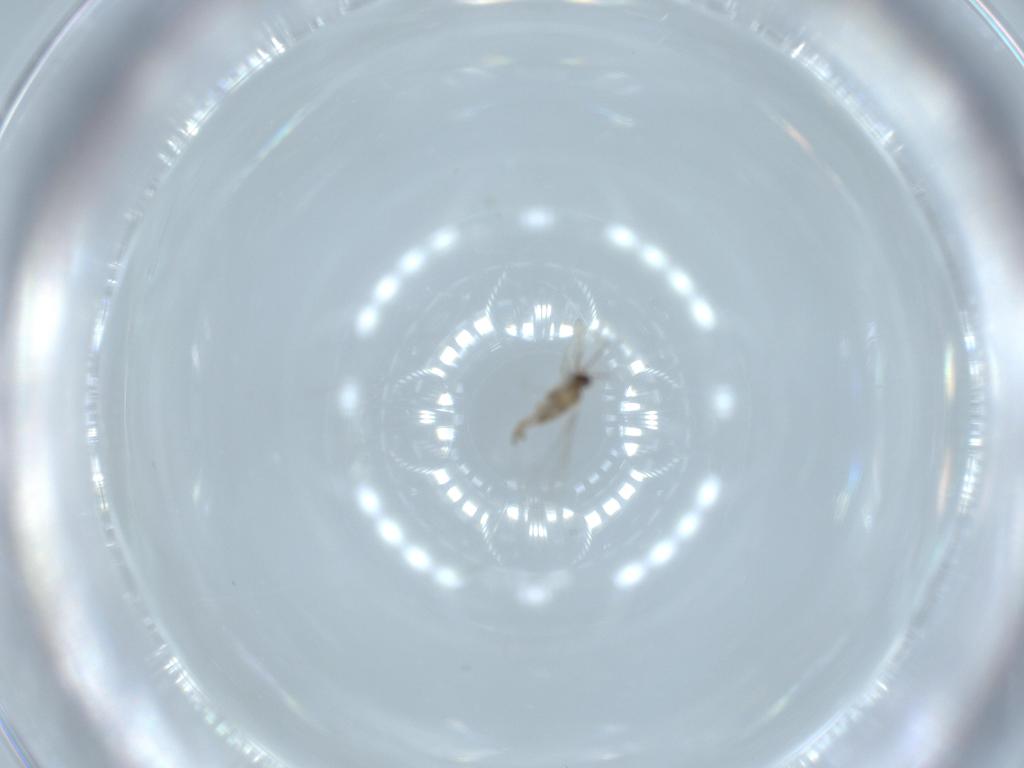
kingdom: Animalia
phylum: Arthropoda
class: Insecta
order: Diptera
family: Cecidomyiidae
